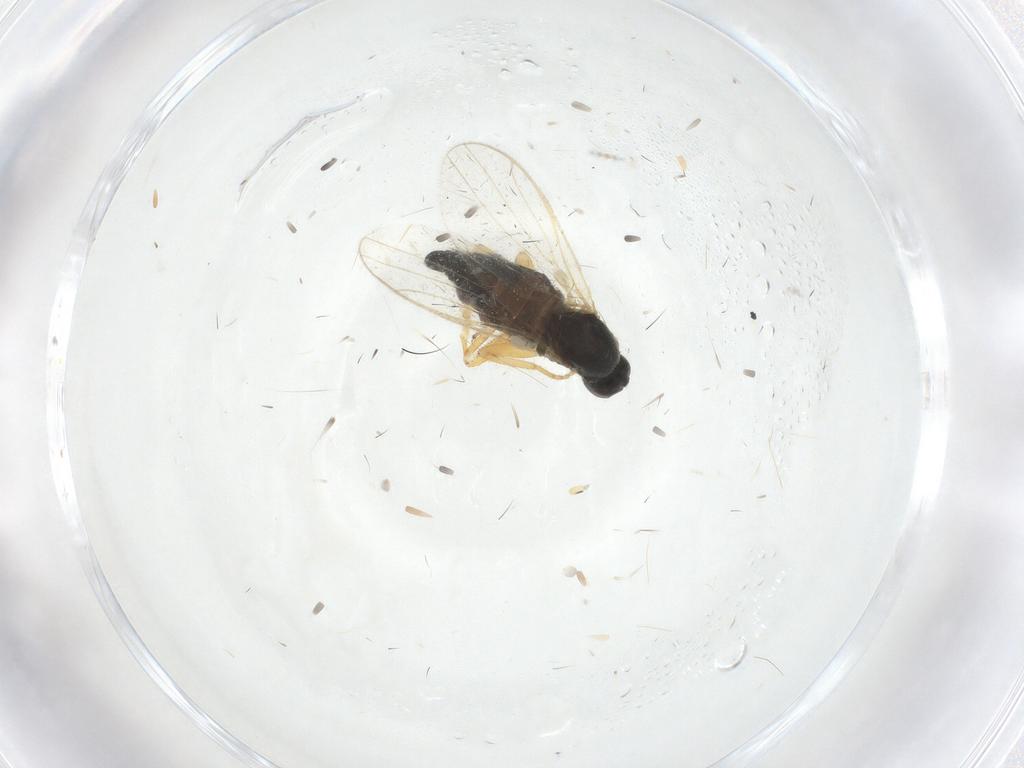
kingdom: Animalia
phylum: Arthropoda
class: Insecta
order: Diptera
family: Hybotidae
